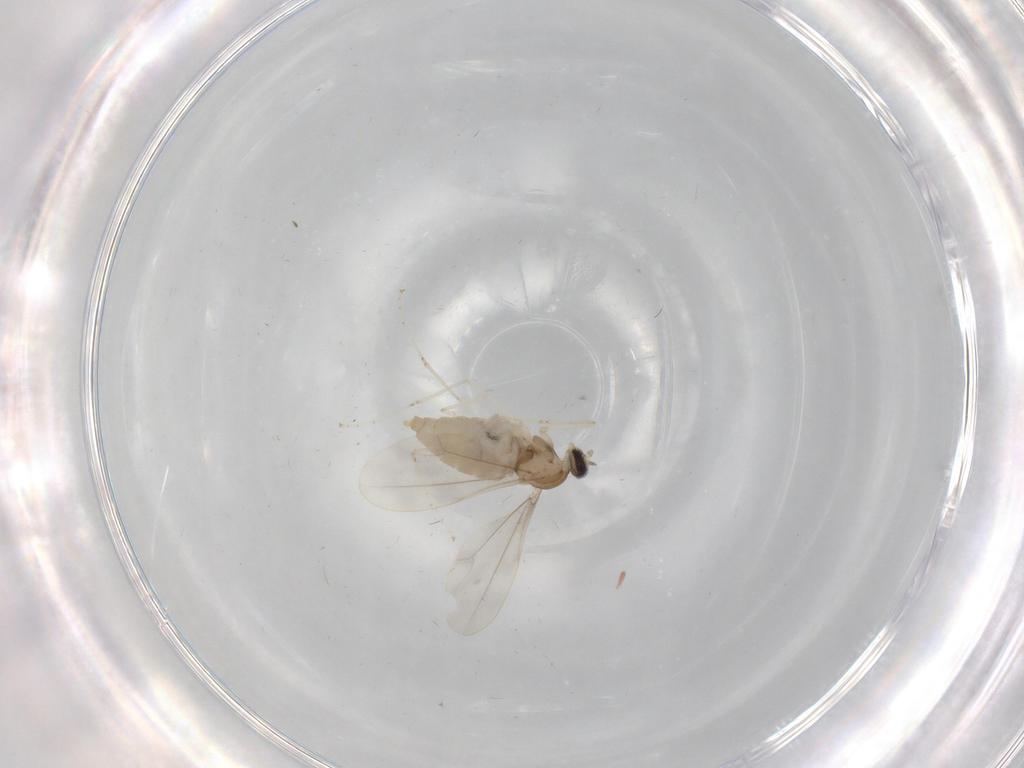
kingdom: Animalia
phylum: Arthropoda
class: Insecta
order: Diptera
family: Cecidomyiidae
